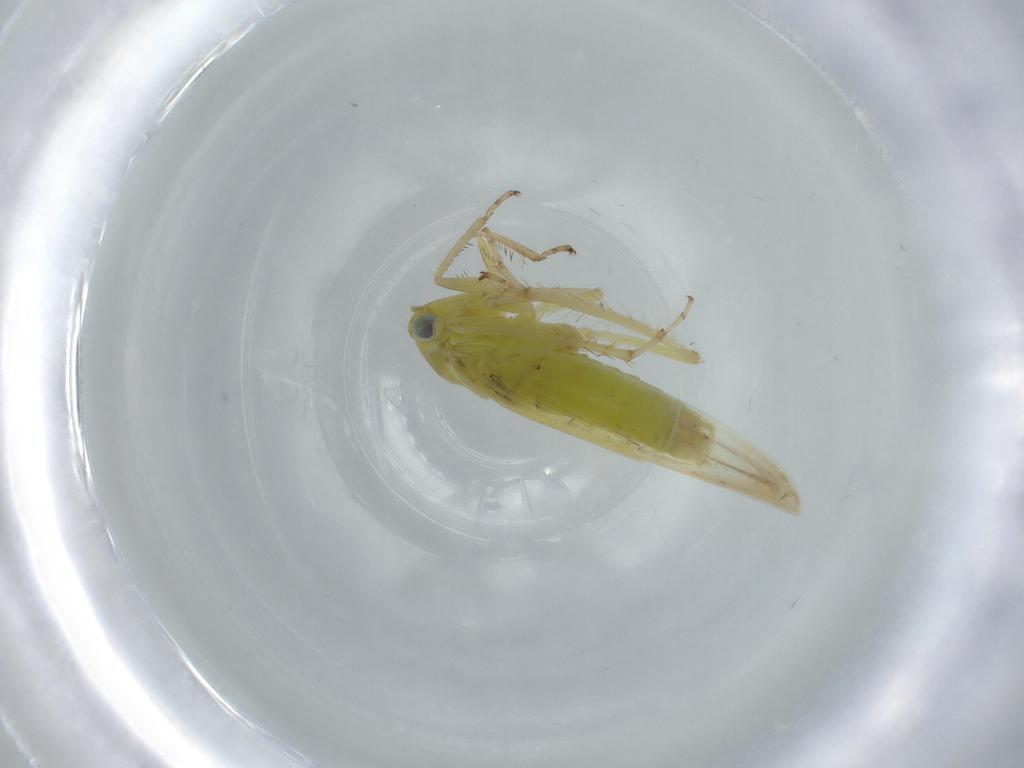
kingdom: Animalia
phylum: Arthropoda
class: Insecta
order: Hemiptera
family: Cicadellidae
